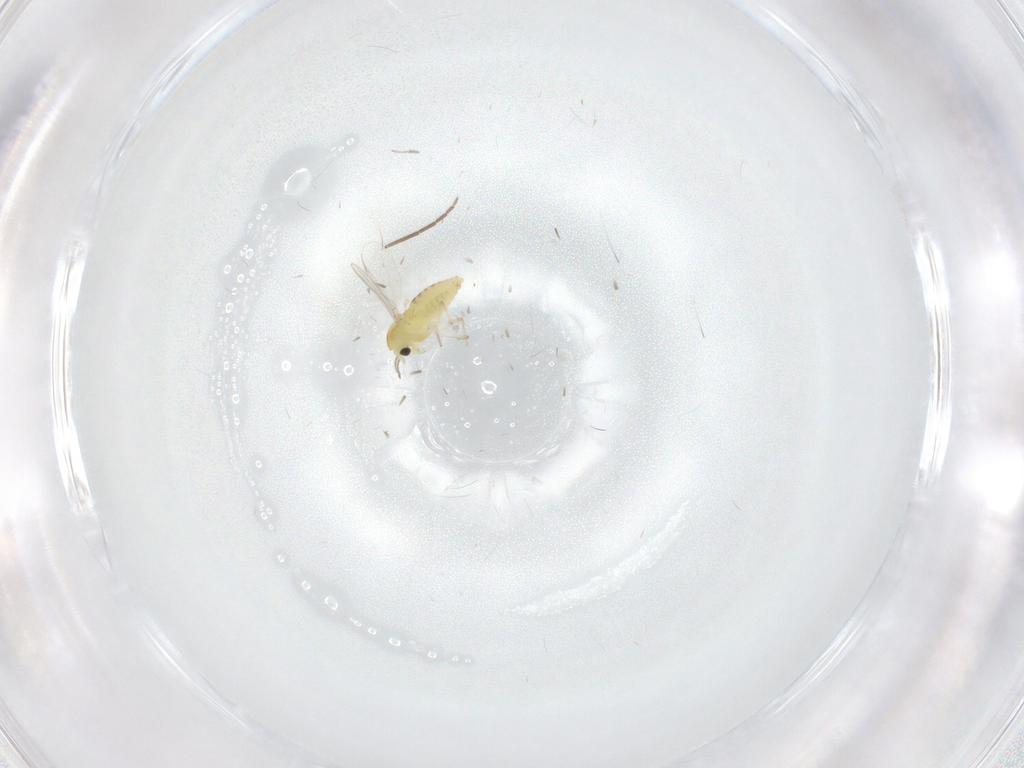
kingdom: Animalia
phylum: Arthropoda
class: Insecta
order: Diptera
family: Chironomidae
